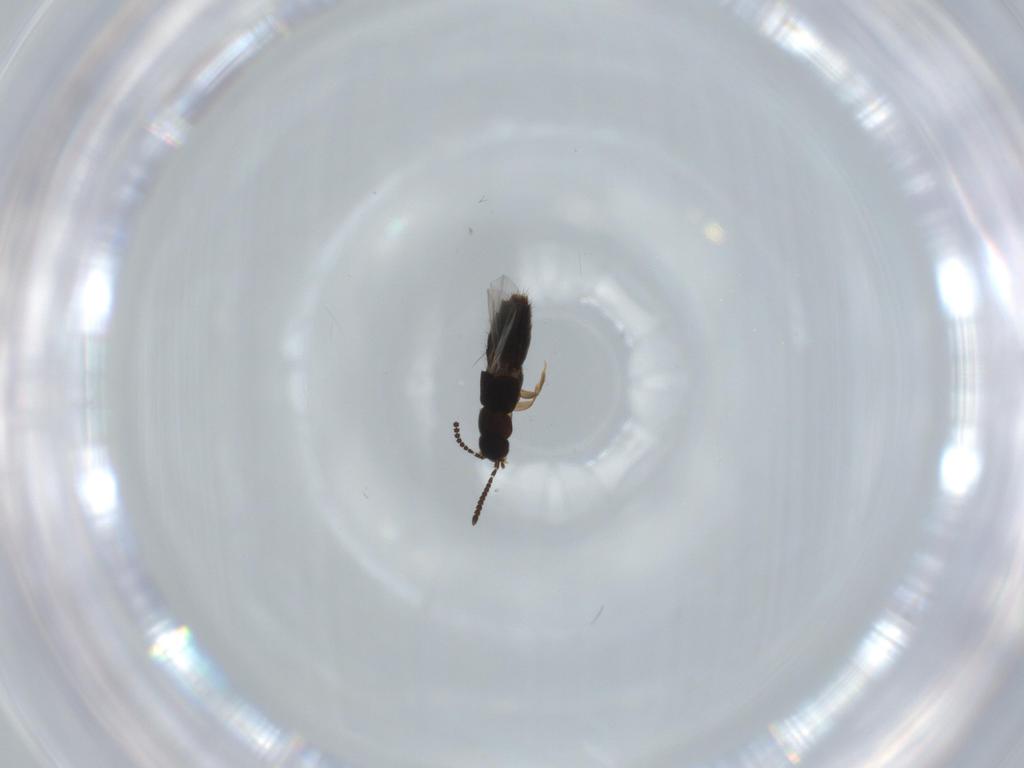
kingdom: Animalia
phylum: Arthropoda
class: Insecta
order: Coleoptera
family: Staphylinidae
